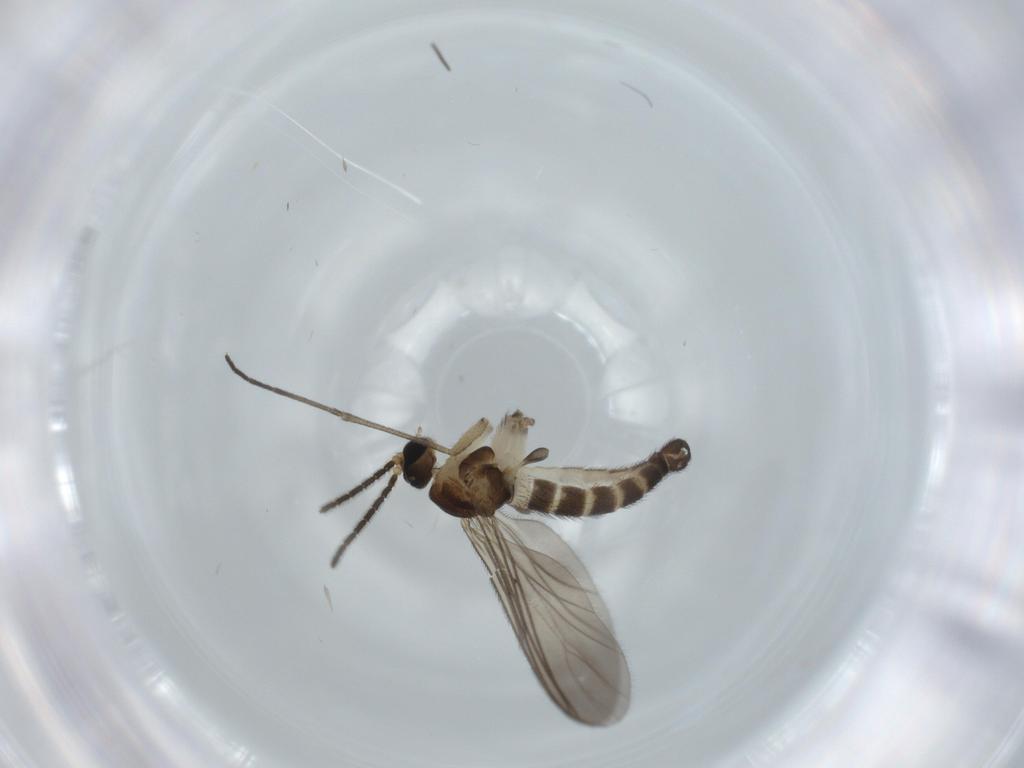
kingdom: Animalia
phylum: Arthropoda
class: Insecta
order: Diptera
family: Sciaridae
